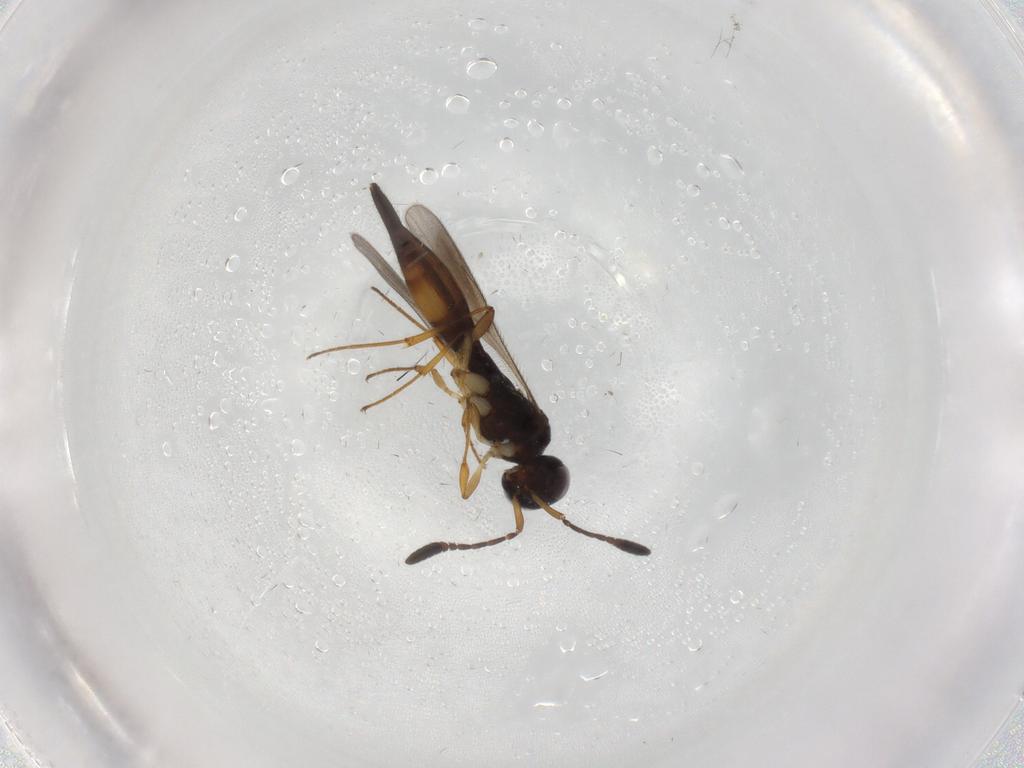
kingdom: Animalia
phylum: Arthropoda
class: Insecta
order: Hymenoptera
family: Scelionidae
